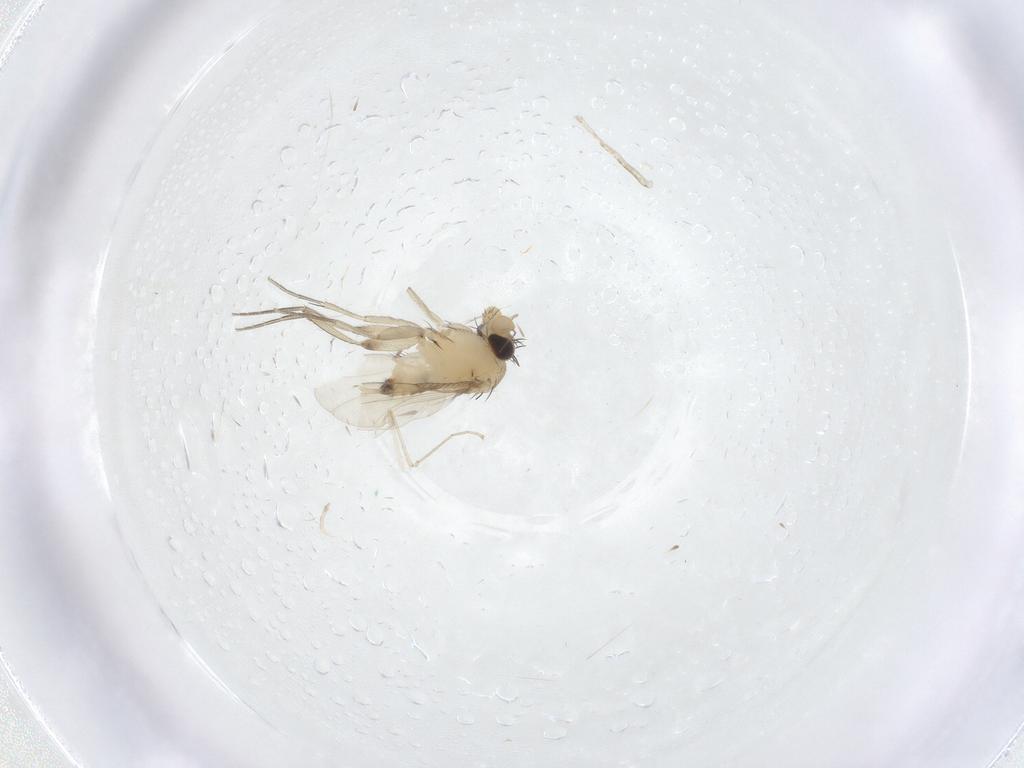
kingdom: Animalia
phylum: Arthropoda
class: Insecta
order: Diptera
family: Phoridae
